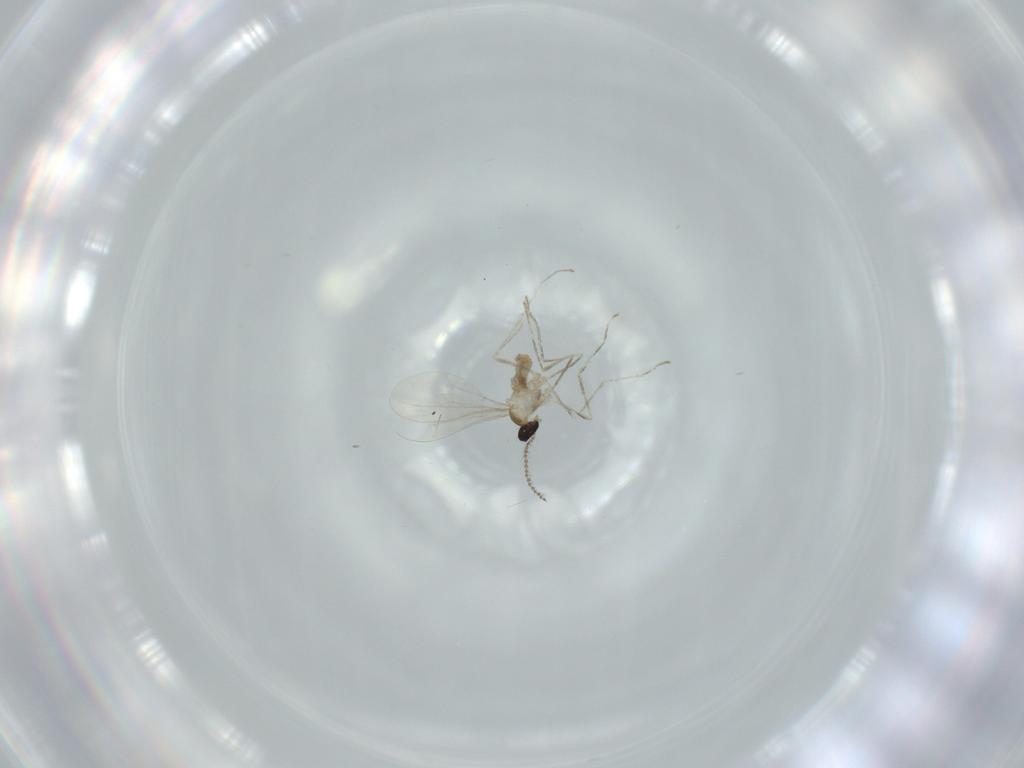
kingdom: Animalia
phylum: Arthropoda
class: Insecta
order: Diptera
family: Cecidomyiidae
